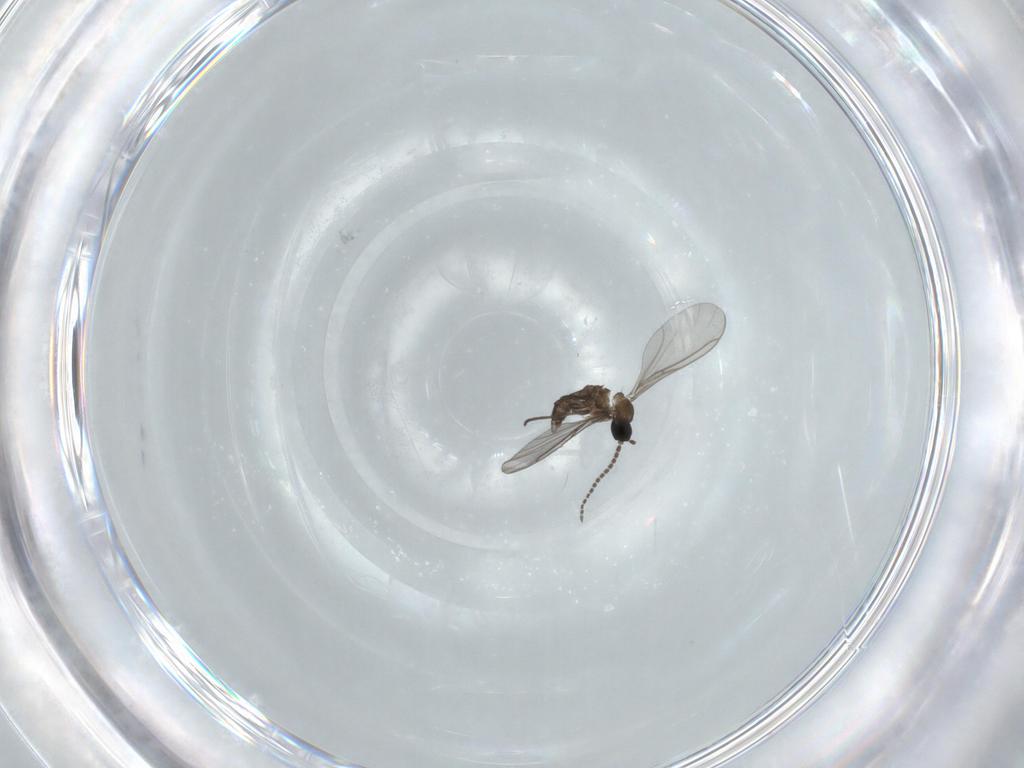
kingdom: Animalia
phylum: Arthropoda
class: Insecta
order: Diptera
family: Sciaridae
